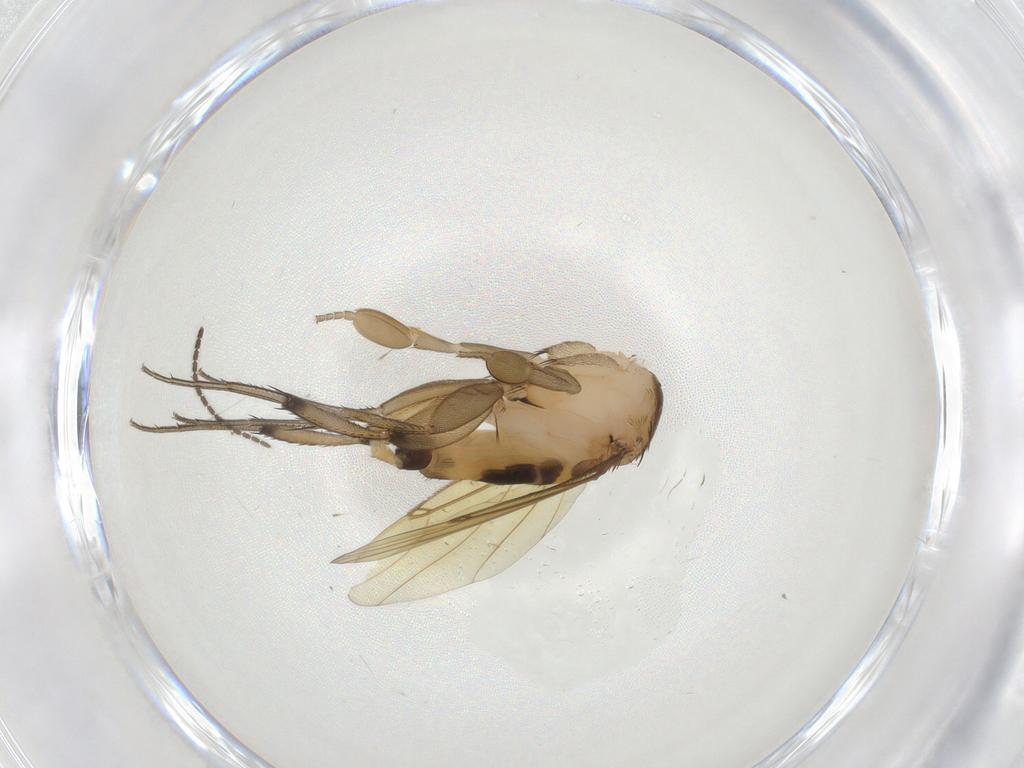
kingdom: Animalia
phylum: Arthropoda
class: Insecta
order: Diptera
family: Phoridae
